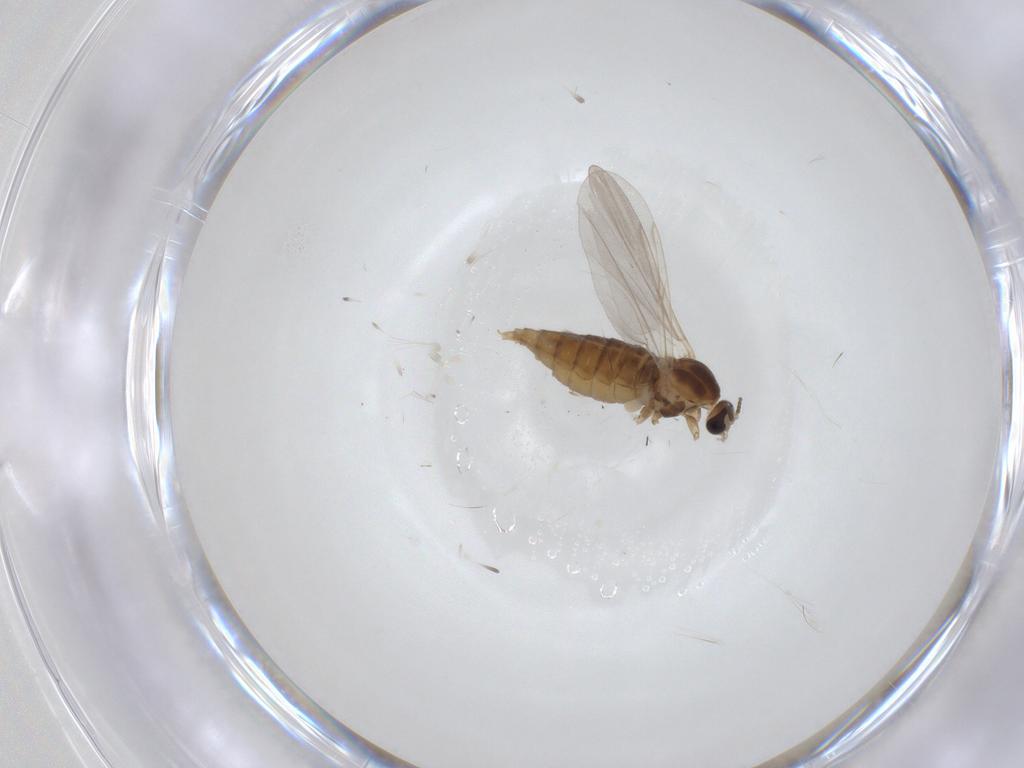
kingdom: Animalia
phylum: Arthropoda
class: Insecta
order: Diptera
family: Cecidomyiidae
